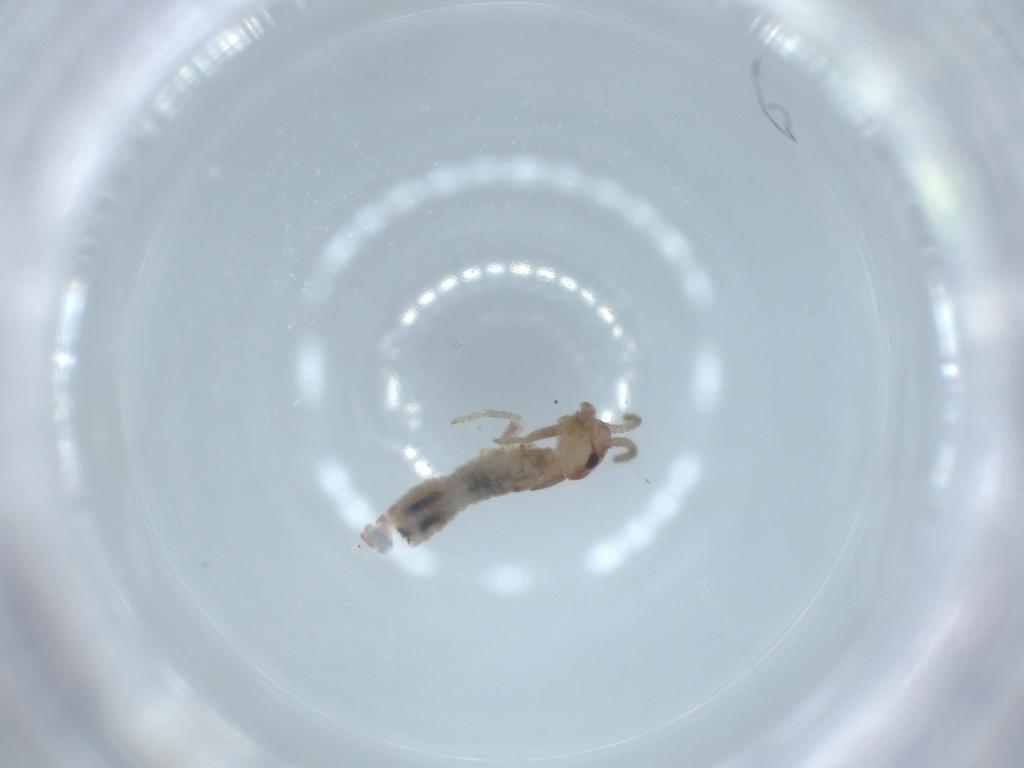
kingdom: Animalia
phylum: Arthropoda
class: Insecta
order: Orthoptera
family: Mogoplistidae
